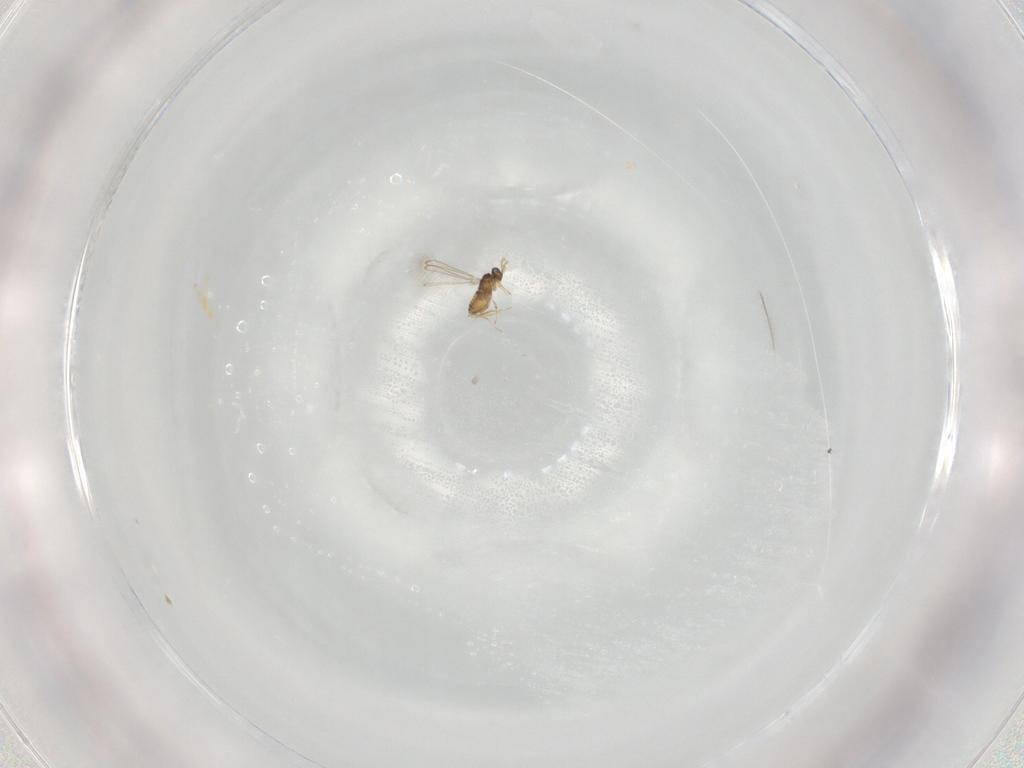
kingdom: Animalia
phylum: Arthropoda
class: Insecta
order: Hymenoptera
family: Mymaridae
